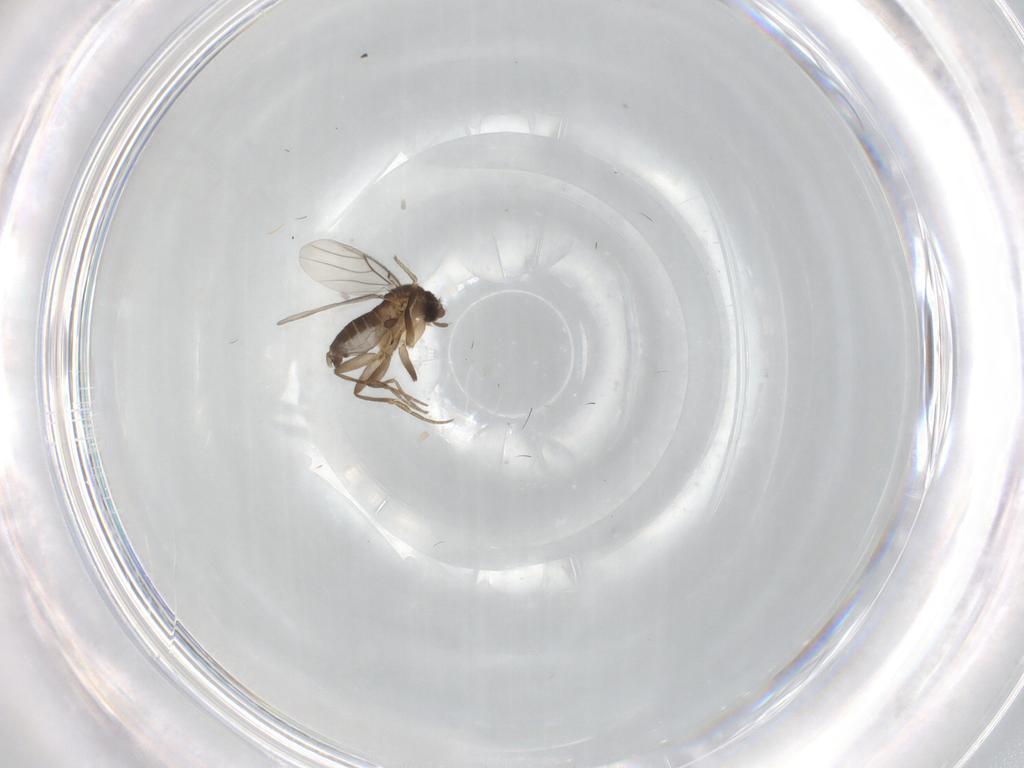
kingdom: Animalia
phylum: Arthropoda
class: Insecta
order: Diptera
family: Phoridae
